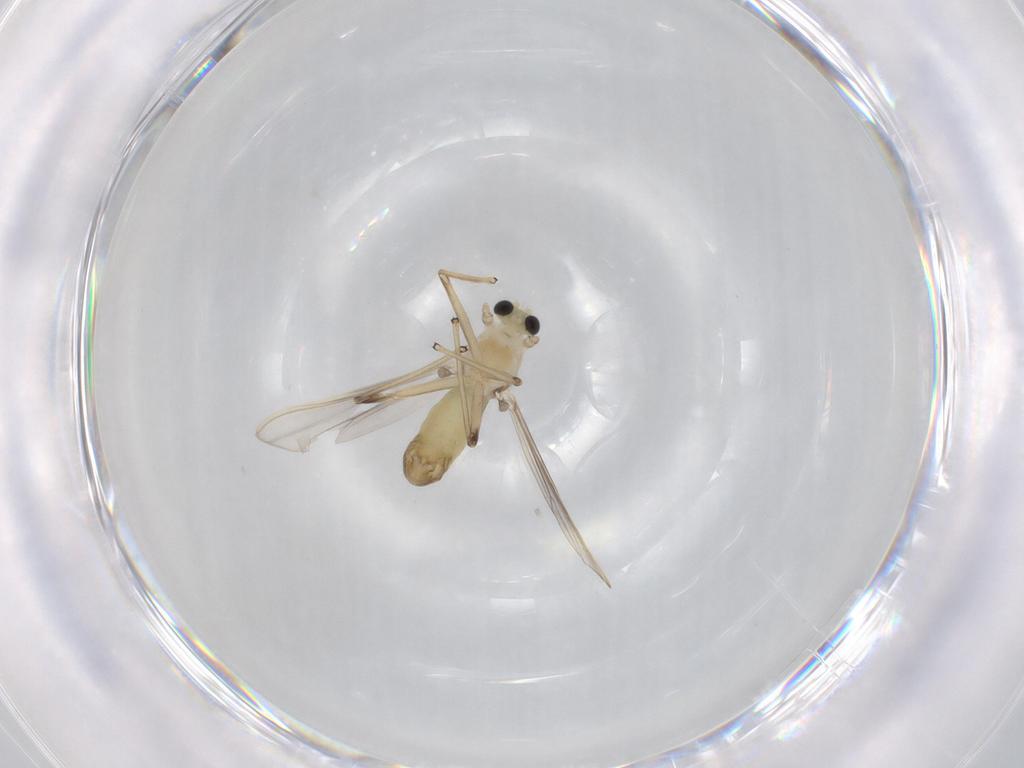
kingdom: Animalia
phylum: Arthropoda
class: Insecta
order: Diptera
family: Chironomidae
